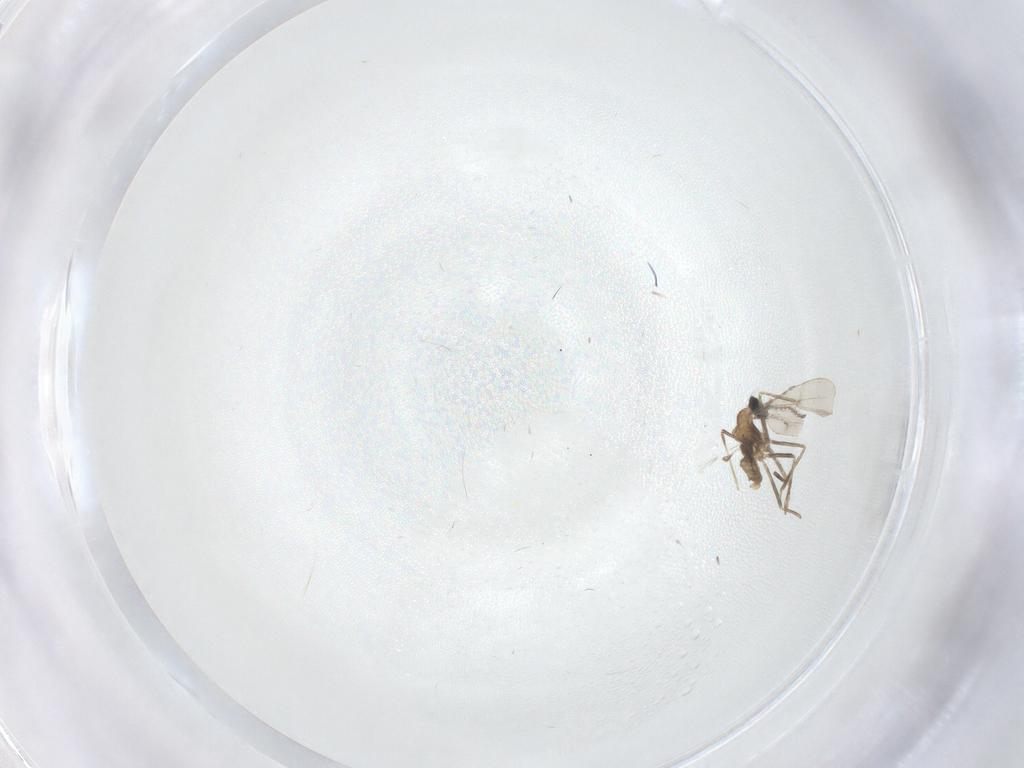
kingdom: Animalia
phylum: Arthropoda
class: Insecta
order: Diptera
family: Cecidomyiidae
